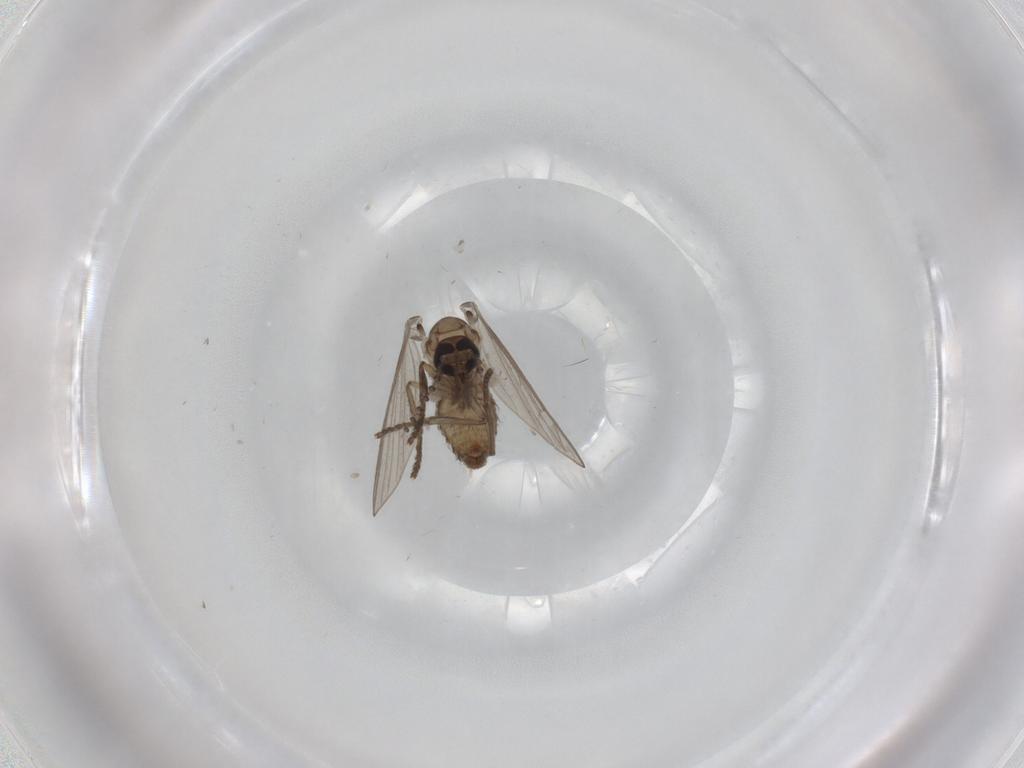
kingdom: Animalia
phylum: Arthropoda
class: Insecta
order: Diptera
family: Psychodidae
